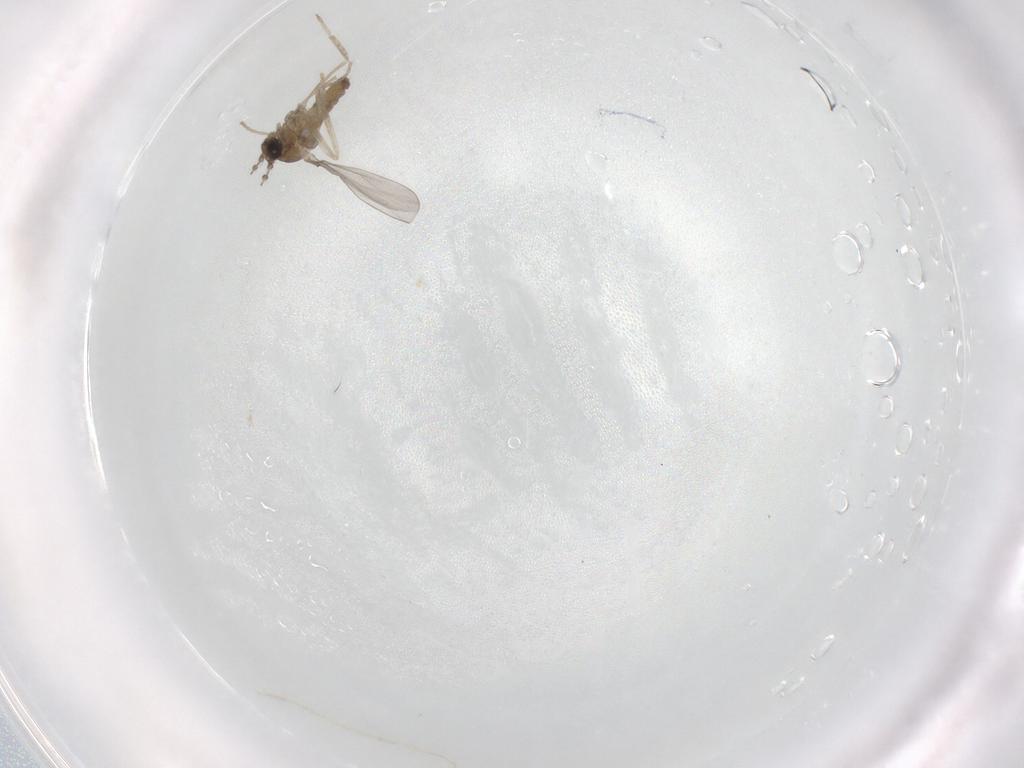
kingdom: Animalia
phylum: Arthropoda
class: Insecta
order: Diptera
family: Cecidomyiidae
